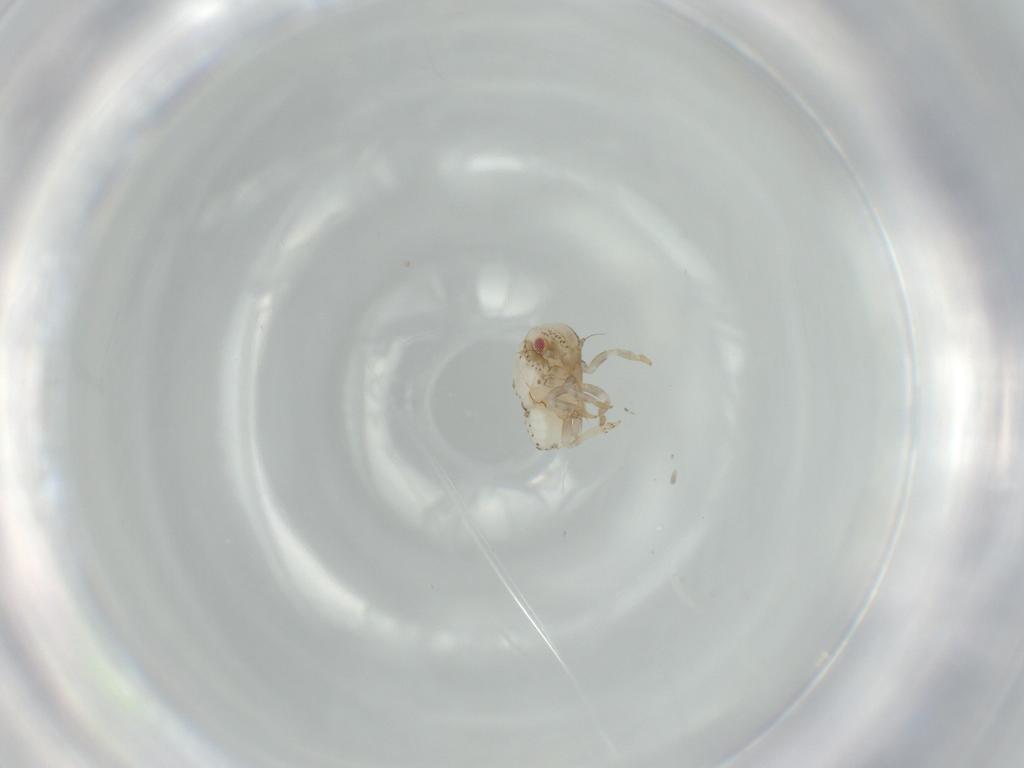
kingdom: Animalia
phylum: Arthropoda
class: Insecta
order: Hemiptera
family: Acanaloniidae
